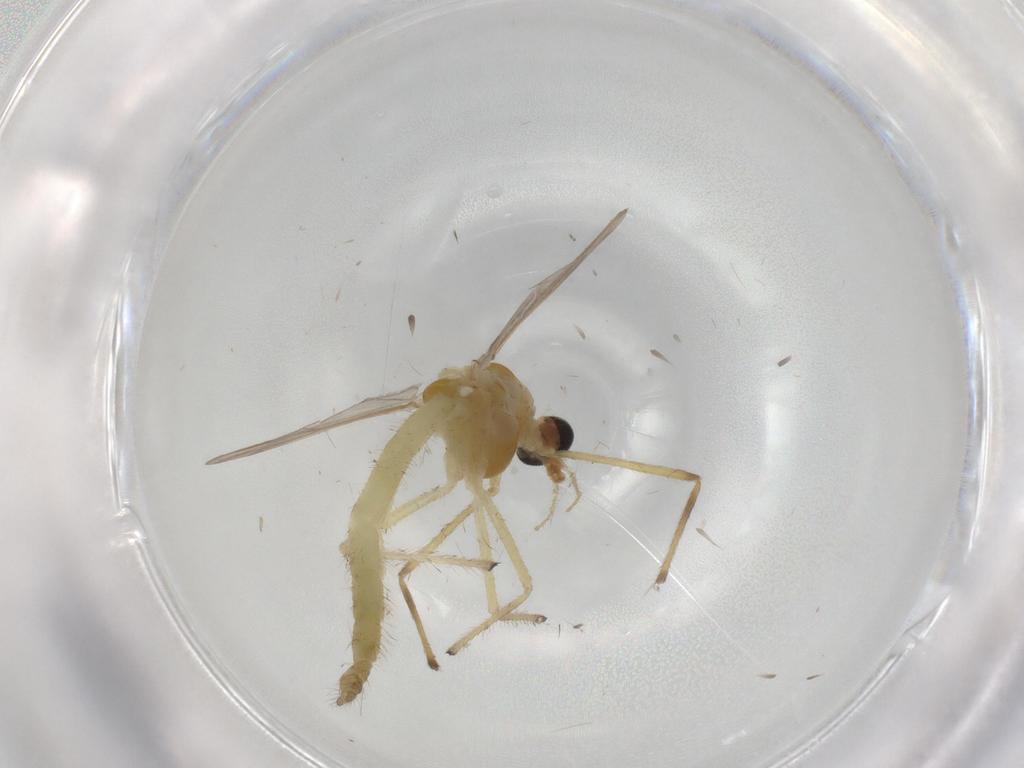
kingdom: Animalia
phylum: Arthropoda
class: Insecta
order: Diptera
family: Chironomidae
